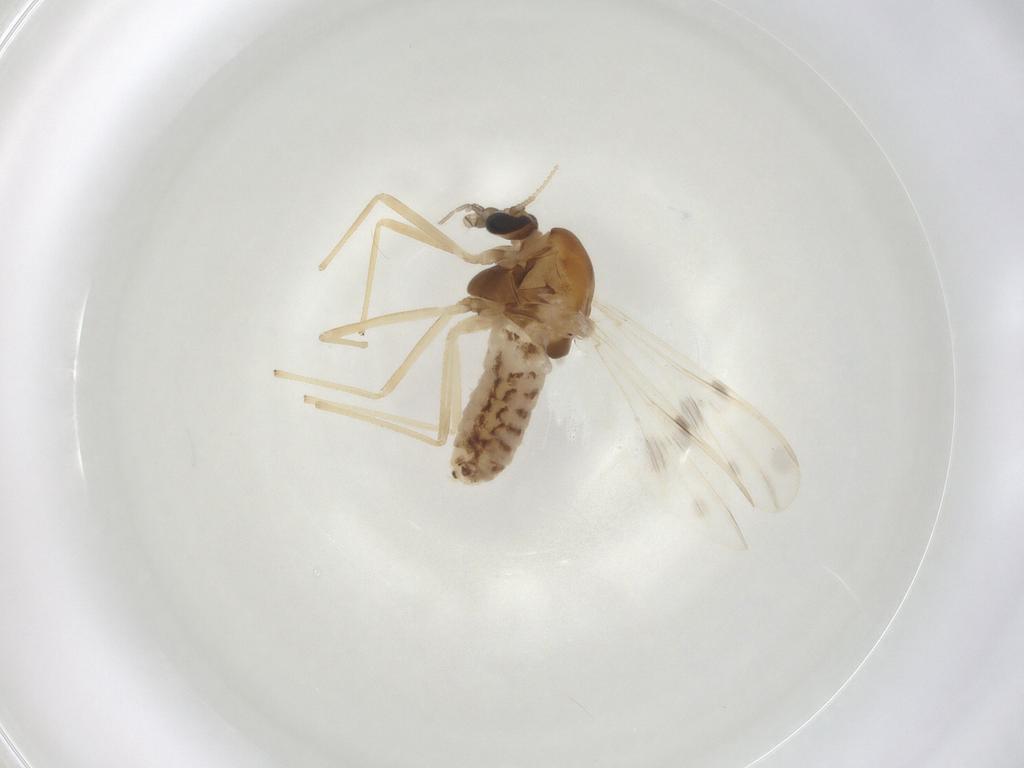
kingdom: Animalia
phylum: Arthropoda
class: Insecta
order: Diptera
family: Chironomidae
